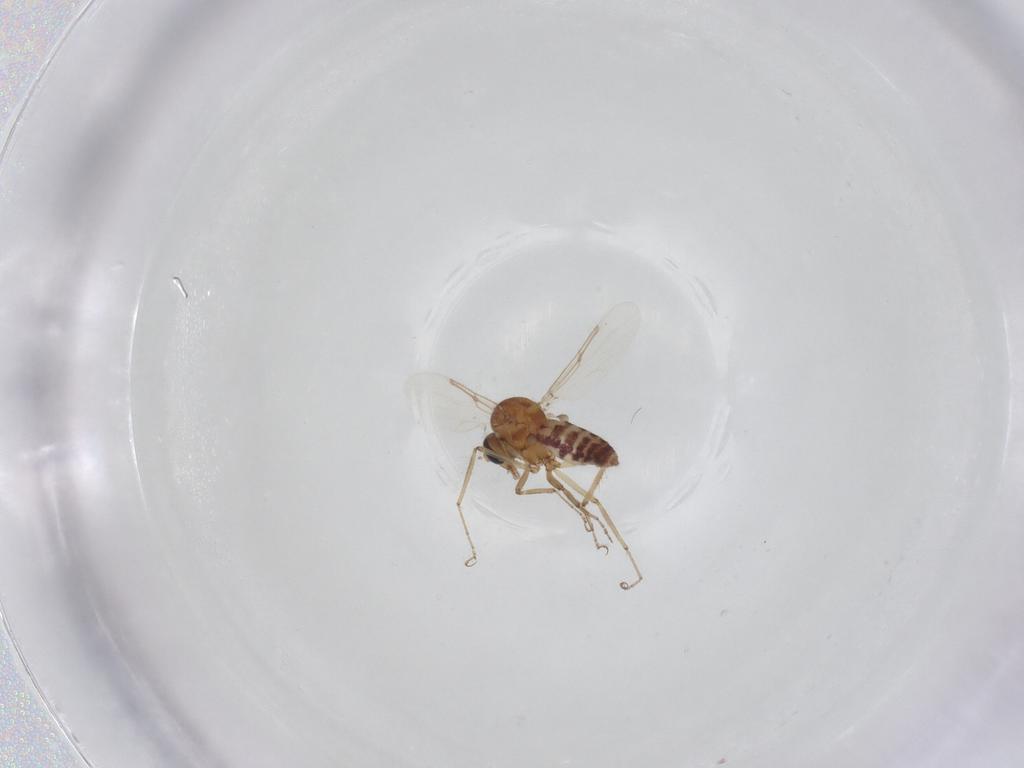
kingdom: Animalia
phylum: Arthropoda
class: Insecta
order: Diptera
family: Ceratopogonidae
